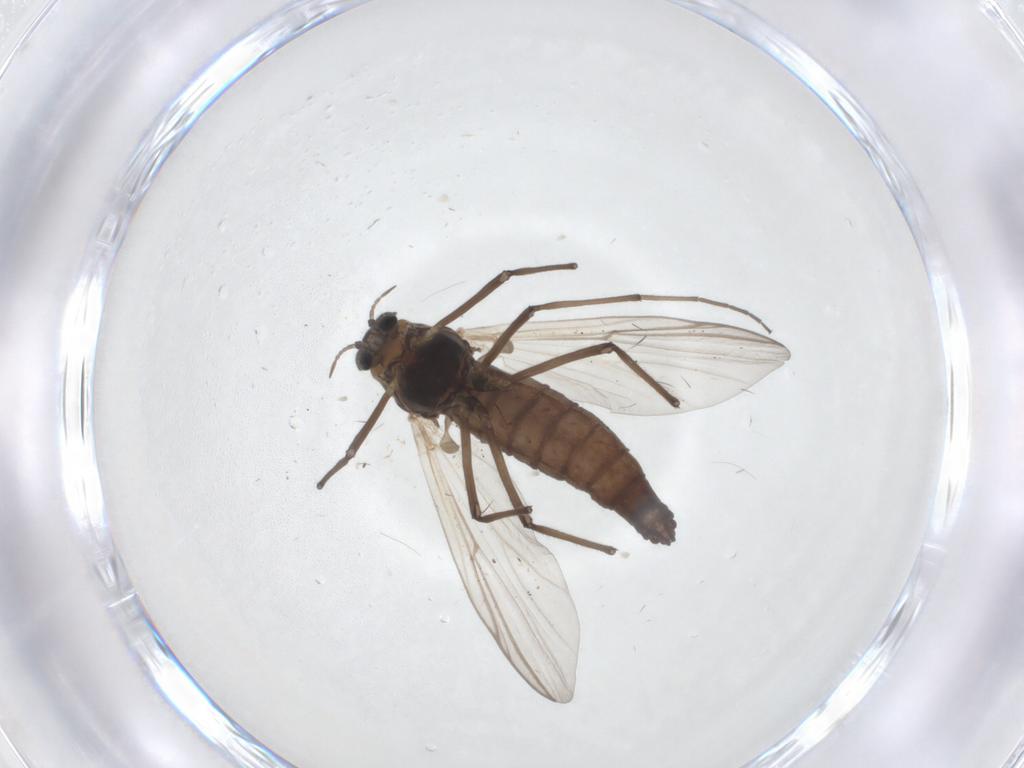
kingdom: Animalia
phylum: Arthropoda
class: Insecta
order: Diptera
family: Chironomidae
